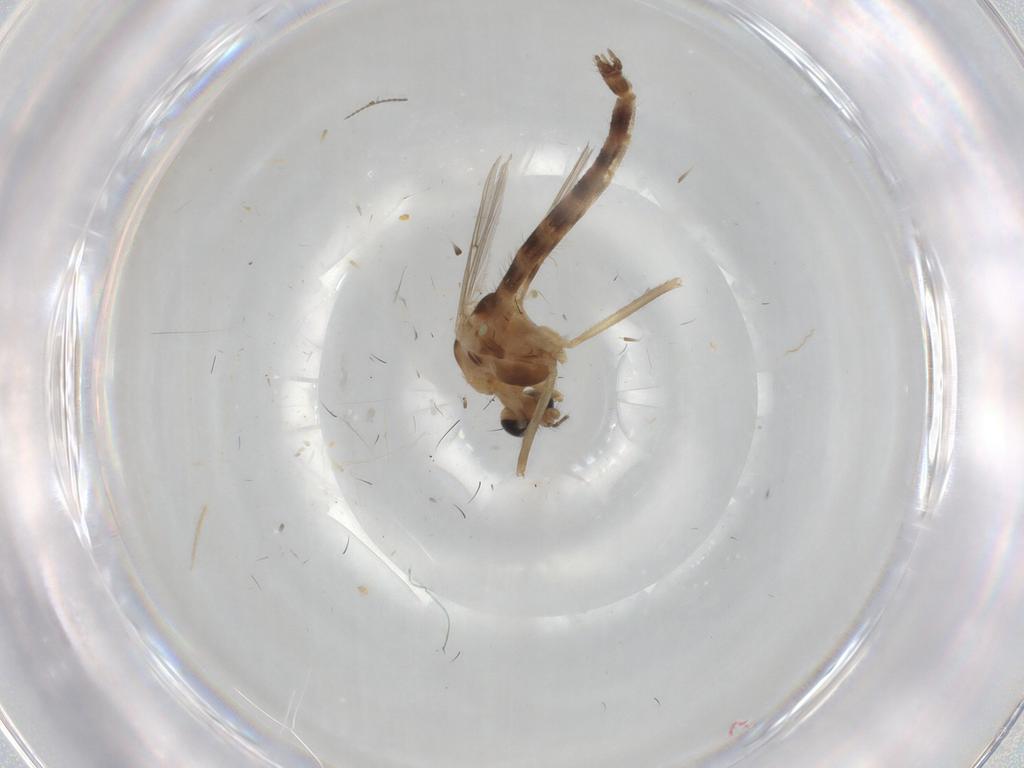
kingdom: Animalia
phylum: Arthropoda
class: Insecta
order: Diptera
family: Chironomidae
